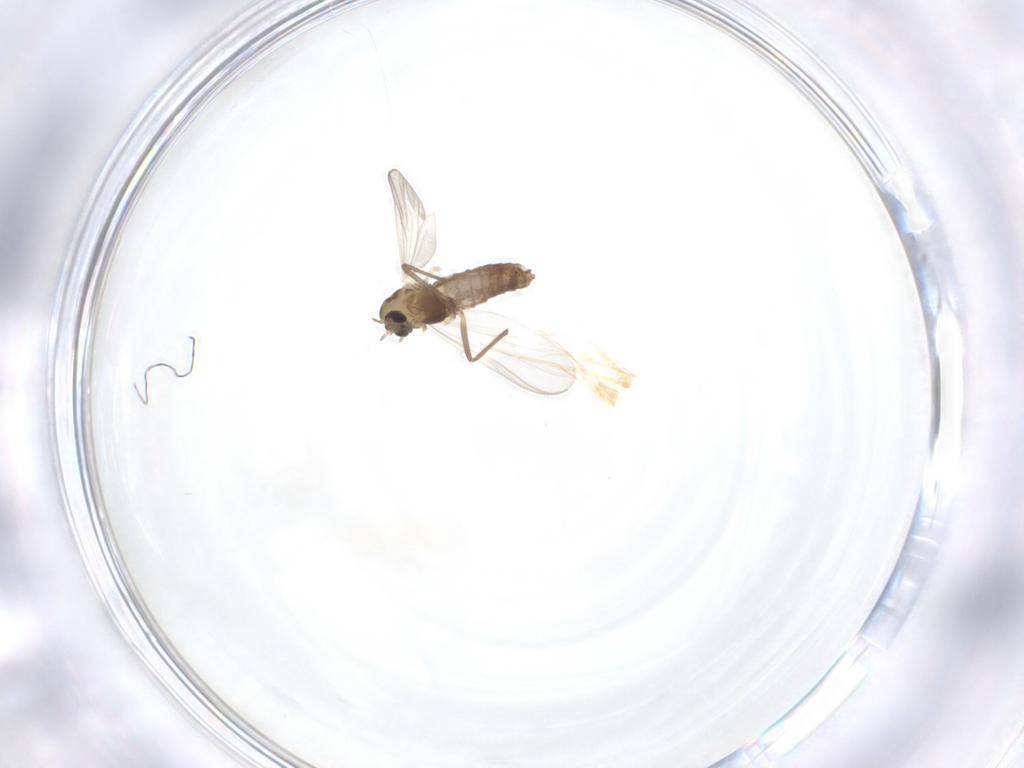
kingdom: Animalia
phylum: Arthropoda
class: Insecta
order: Diptera
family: Chironomidae
